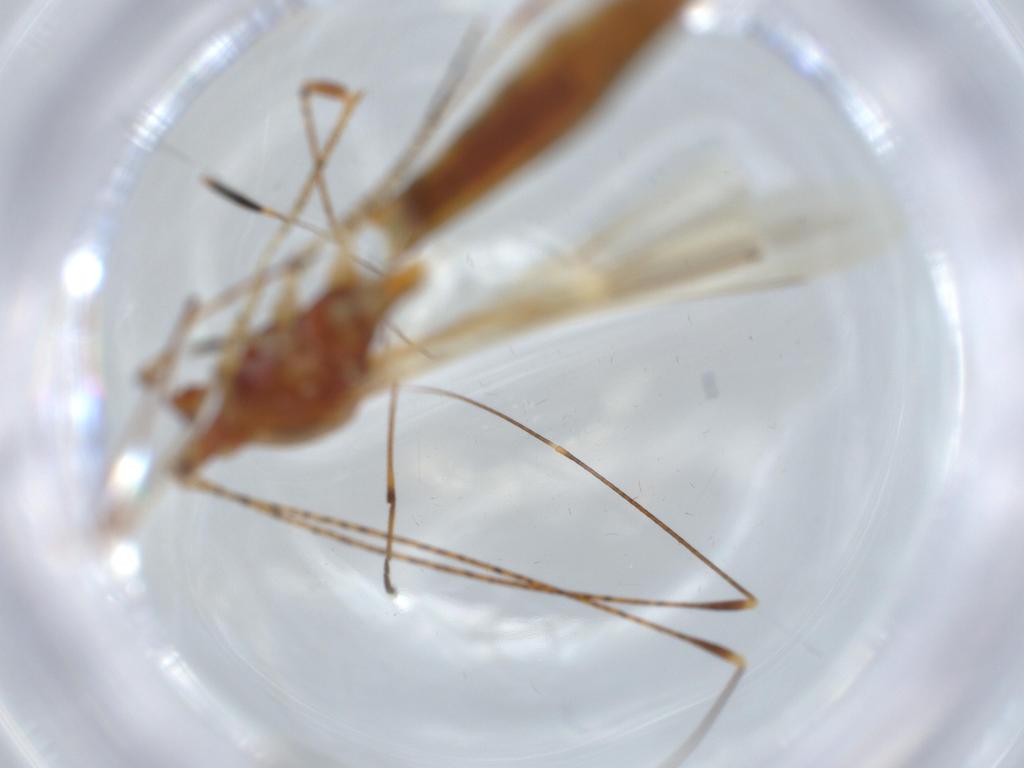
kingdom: Animalia
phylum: Arthropoda
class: Insecta
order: Hemiptera
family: Berytidae
